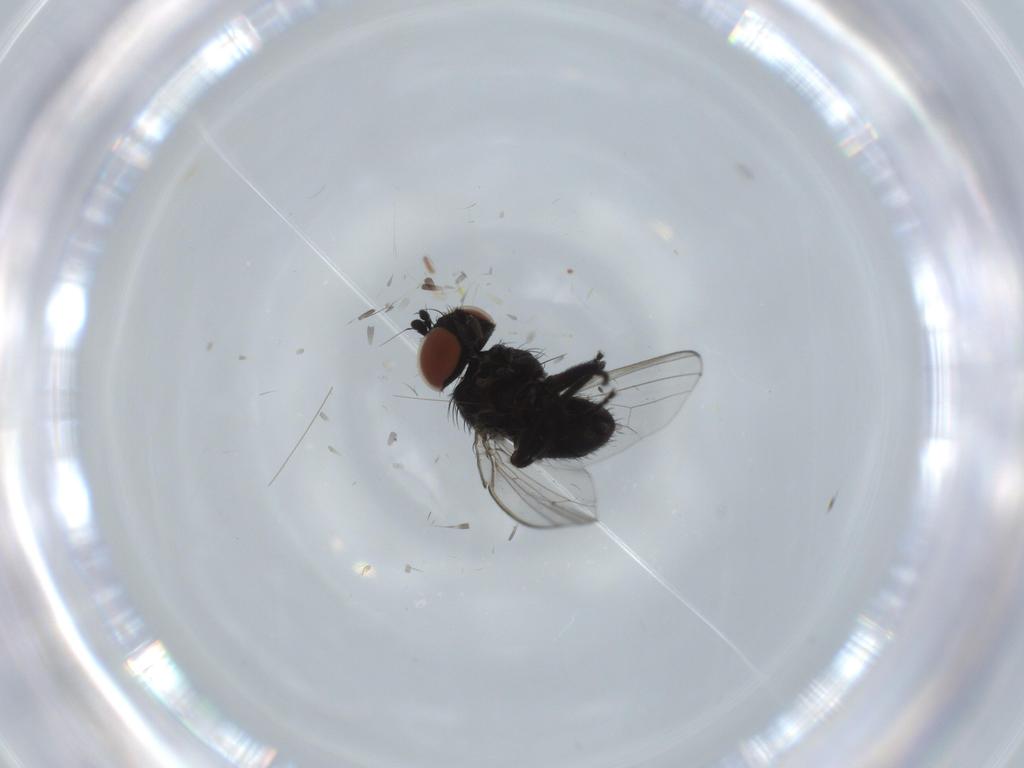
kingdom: Animalia
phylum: Arthropoda
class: Insecta
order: Diptera
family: Milichiidae
